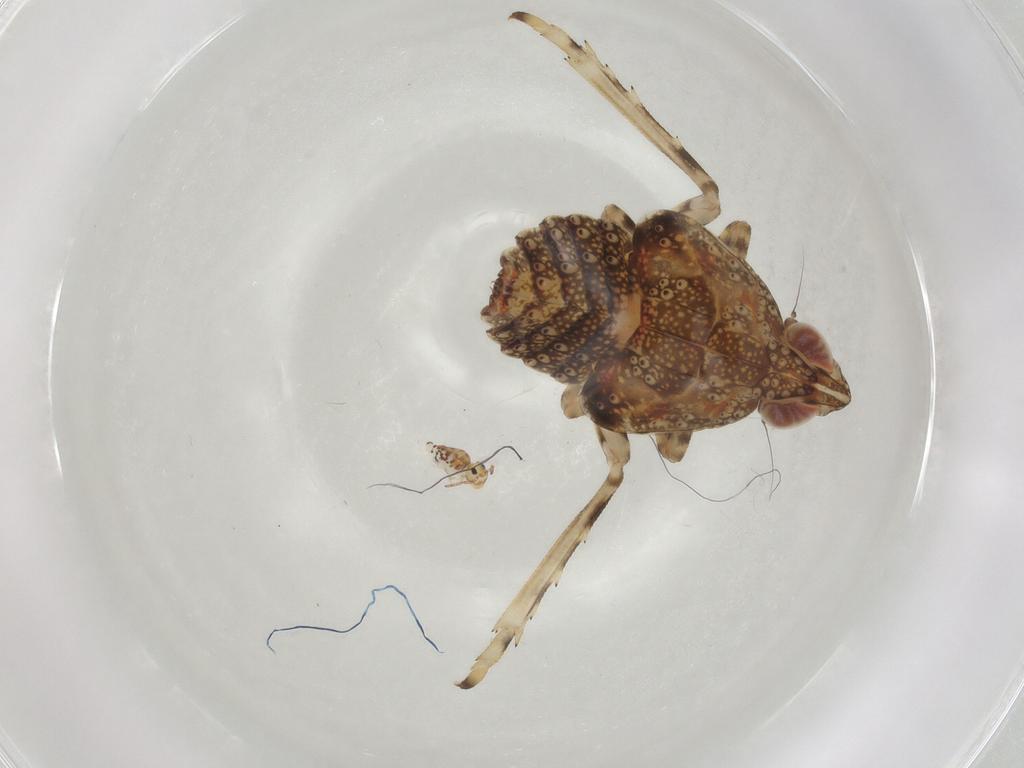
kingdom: Animalia
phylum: Arthropoda
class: Insecta
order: Hemiptera
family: Tropiduchidae
